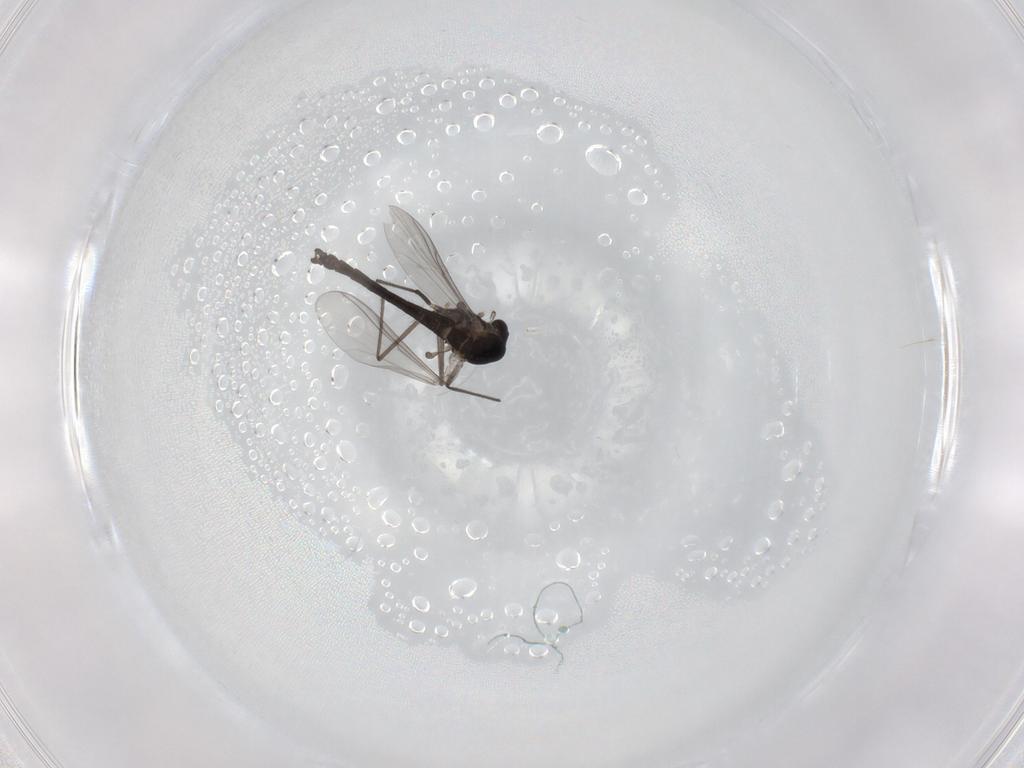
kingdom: Animalia
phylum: Arthropoda
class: Insecta
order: Diptera
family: Chironomidae
